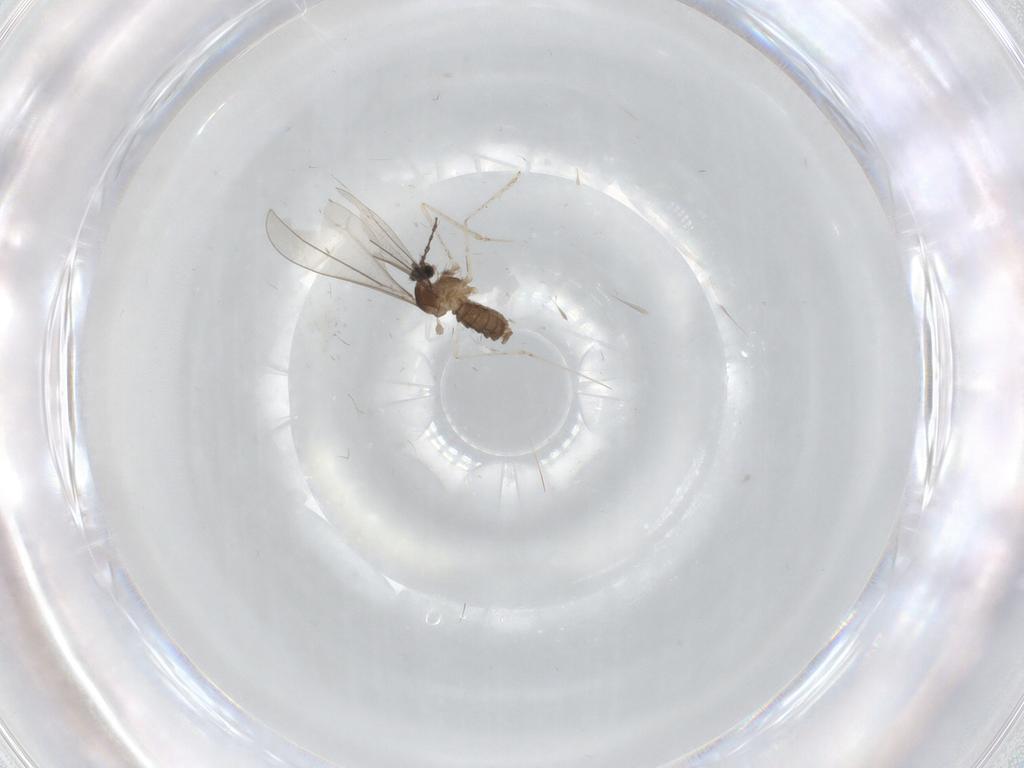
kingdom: Animalia
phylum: Arthropoda
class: Insecta
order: Diptera
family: Cecidomyiidae
